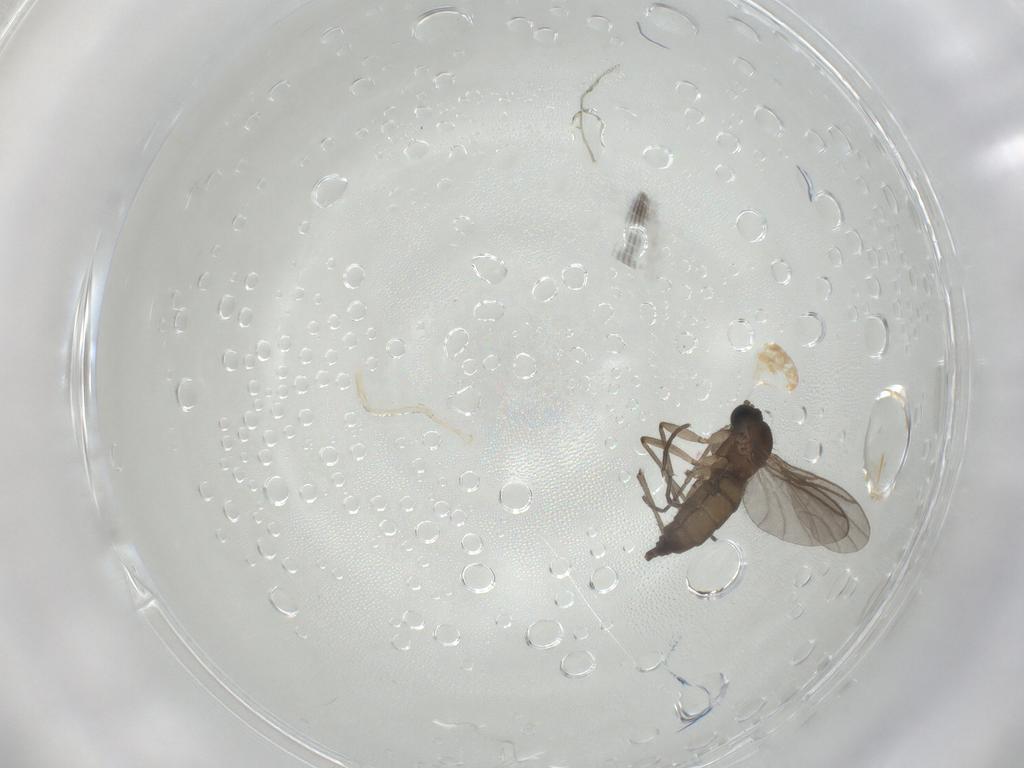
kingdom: Animalia
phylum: Arthropoda
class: Insecta
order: Diptera
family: Sciaridae
